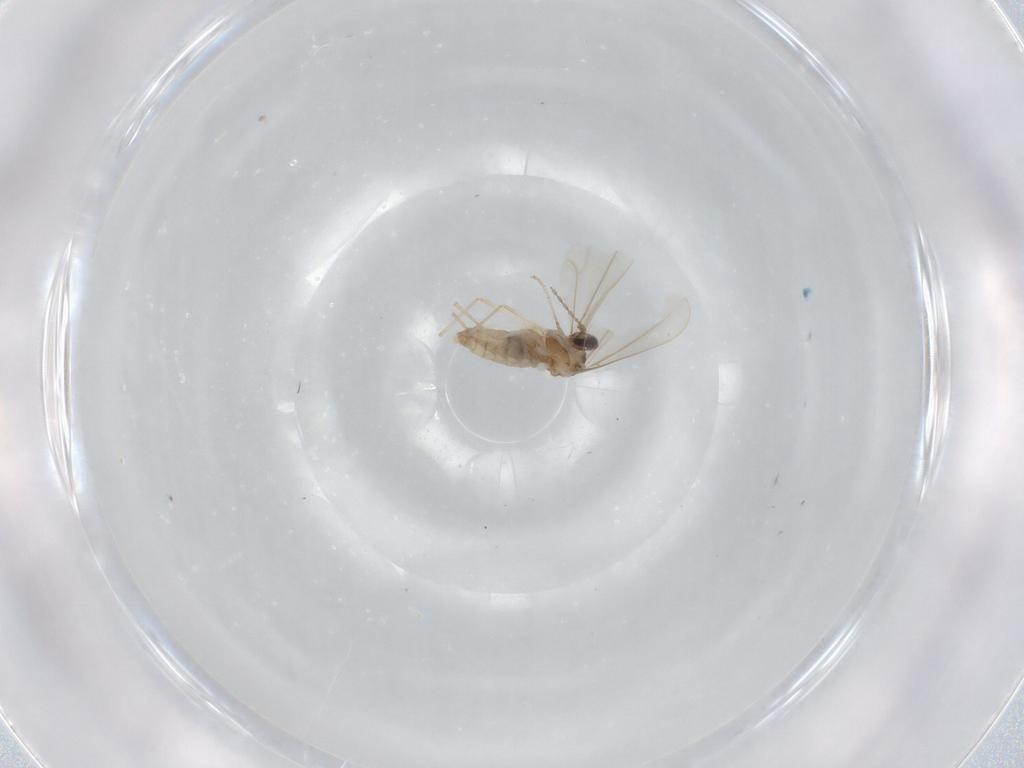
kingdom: Animalia
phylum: Arthropoda
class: Insecta
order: Diptera
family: Cecidomyiidae
